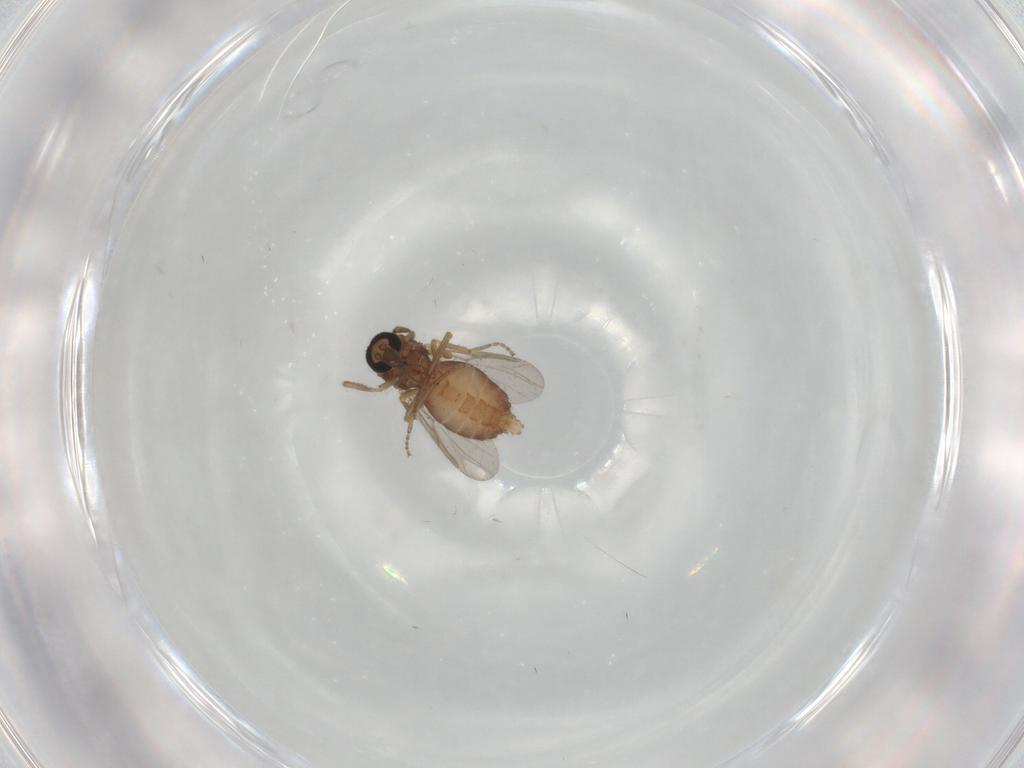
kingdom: Animalia
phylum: Arthropoda
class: Insecta
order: Diptera
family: Ceratopogonidae
